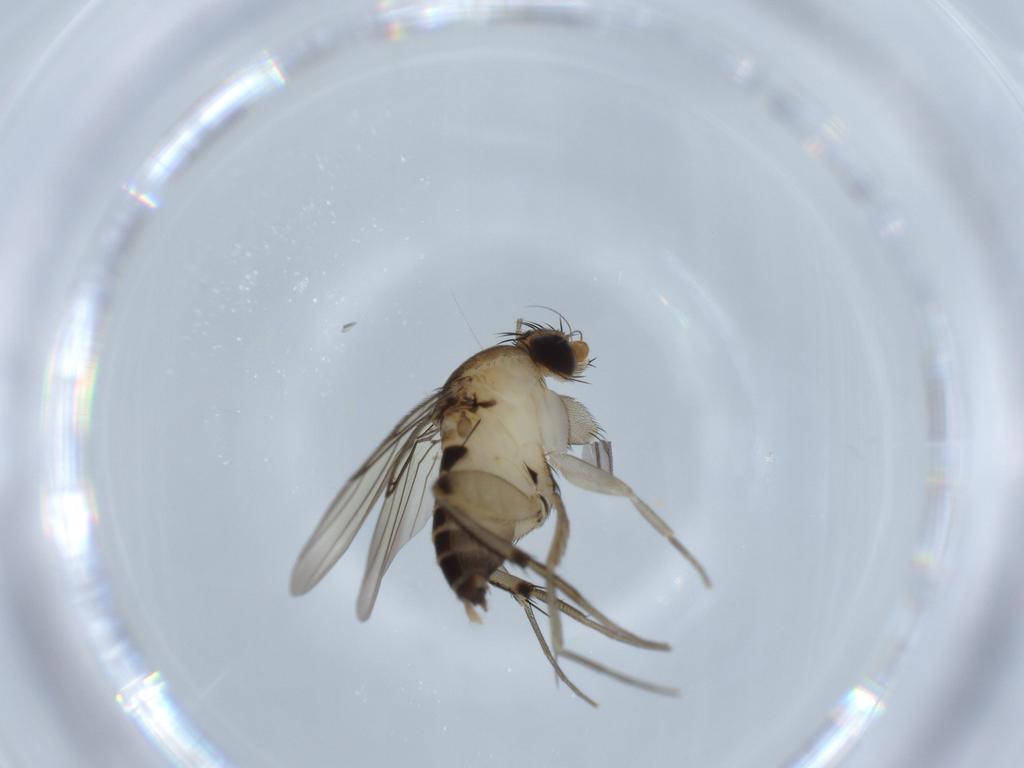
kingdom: Animalia
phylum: Arthropoda
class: Insecta
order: Diptera
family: Phoridae
